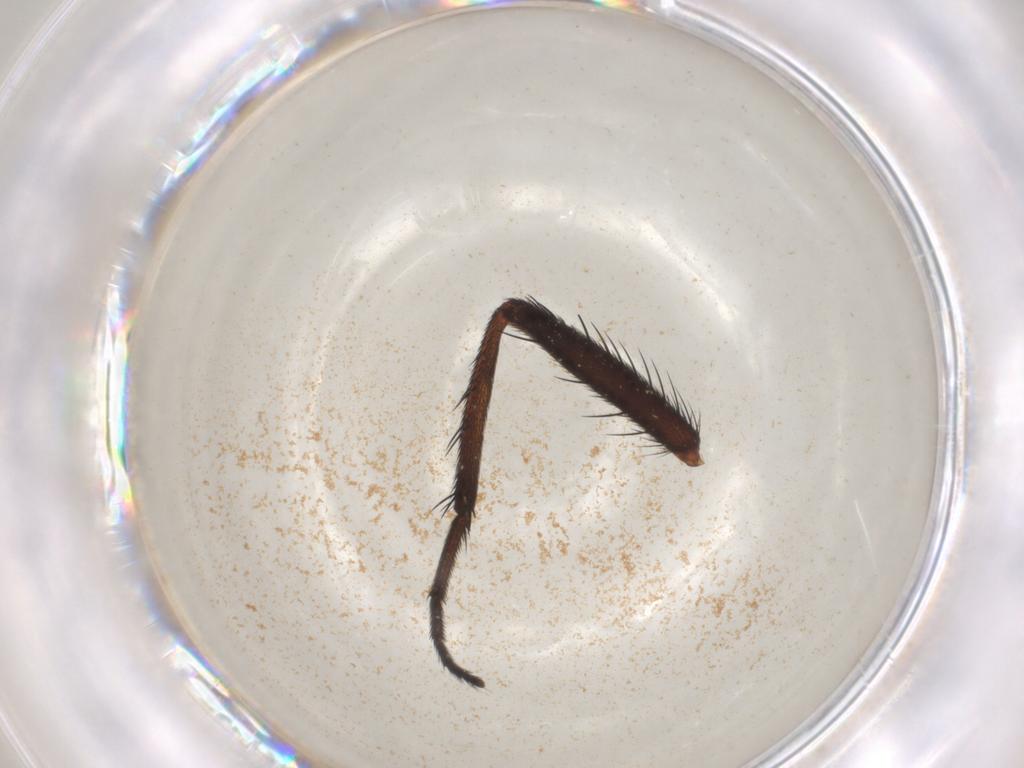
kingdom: Animalia
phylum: Arthropoda
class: Insecta
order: Diptera
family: Calliphoridae
